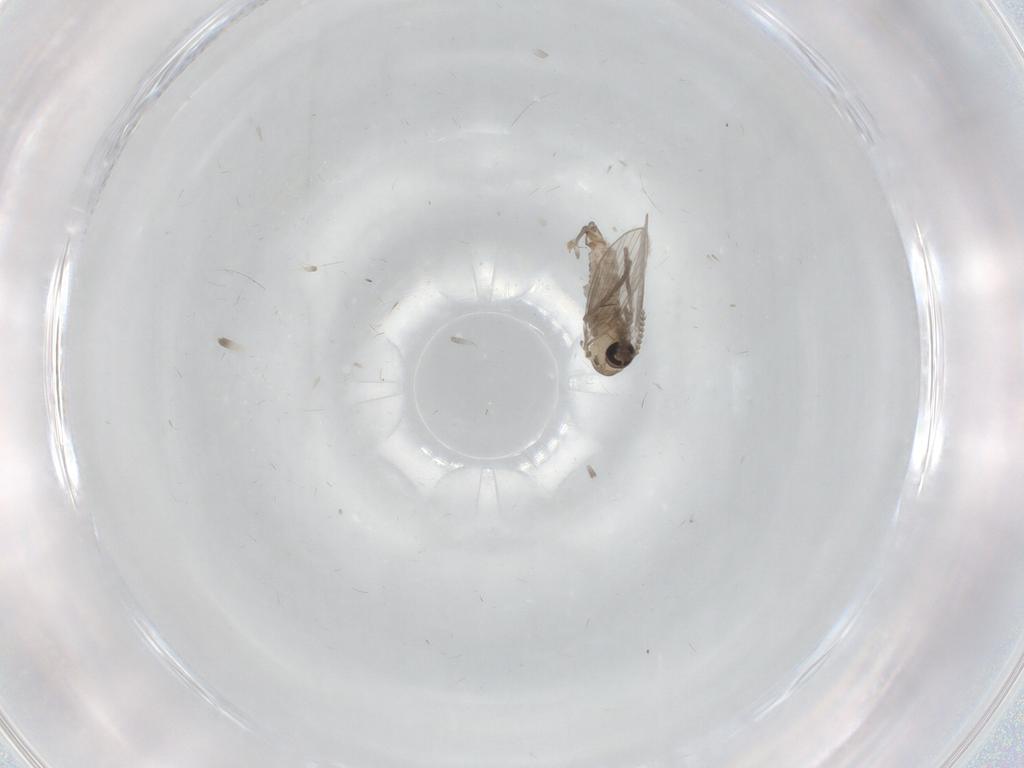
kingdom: Animalia
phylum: Arthropoda
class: Insecta
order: Diptera
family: Psychodidae
